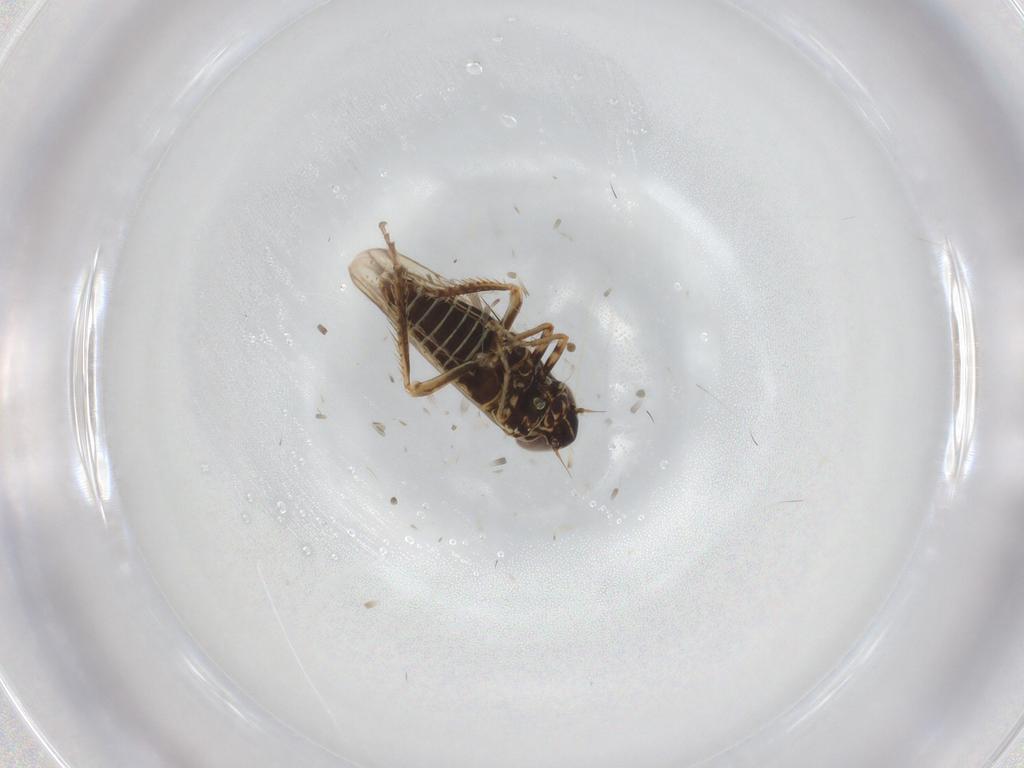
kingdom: Animalia
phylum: Arthropoda
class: Insecta
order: Hemiptera
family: Cicadellidae
